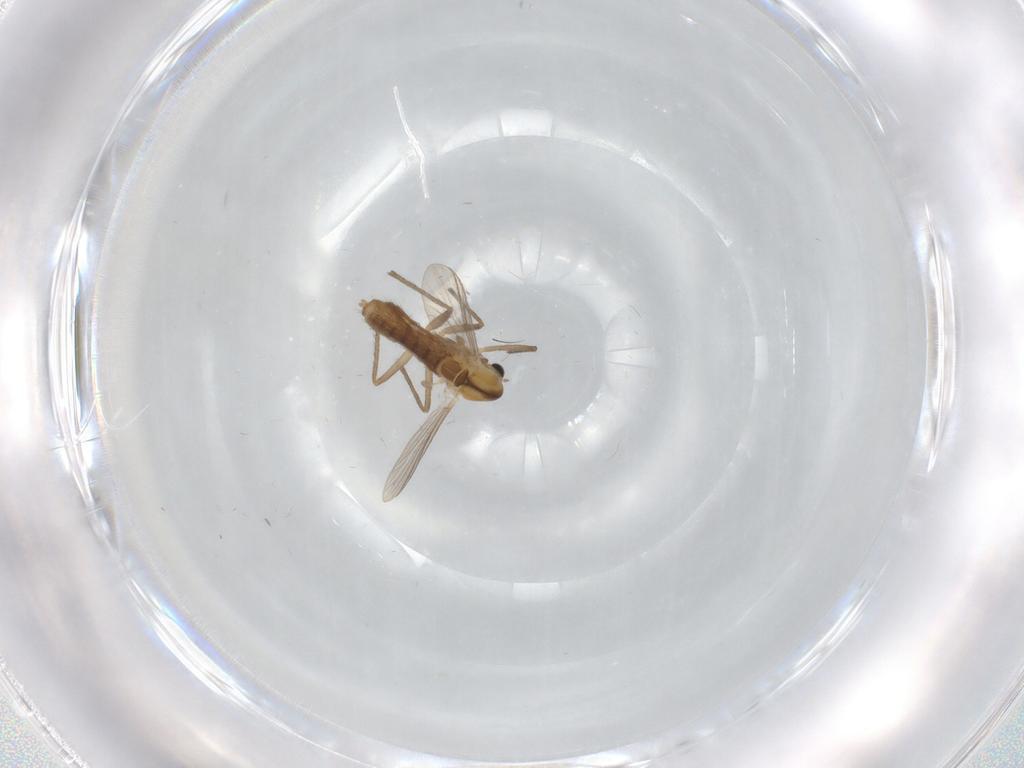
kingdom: Animalia
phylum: Arthropoda
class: Insecta
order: Diptera
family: Chironomidae
